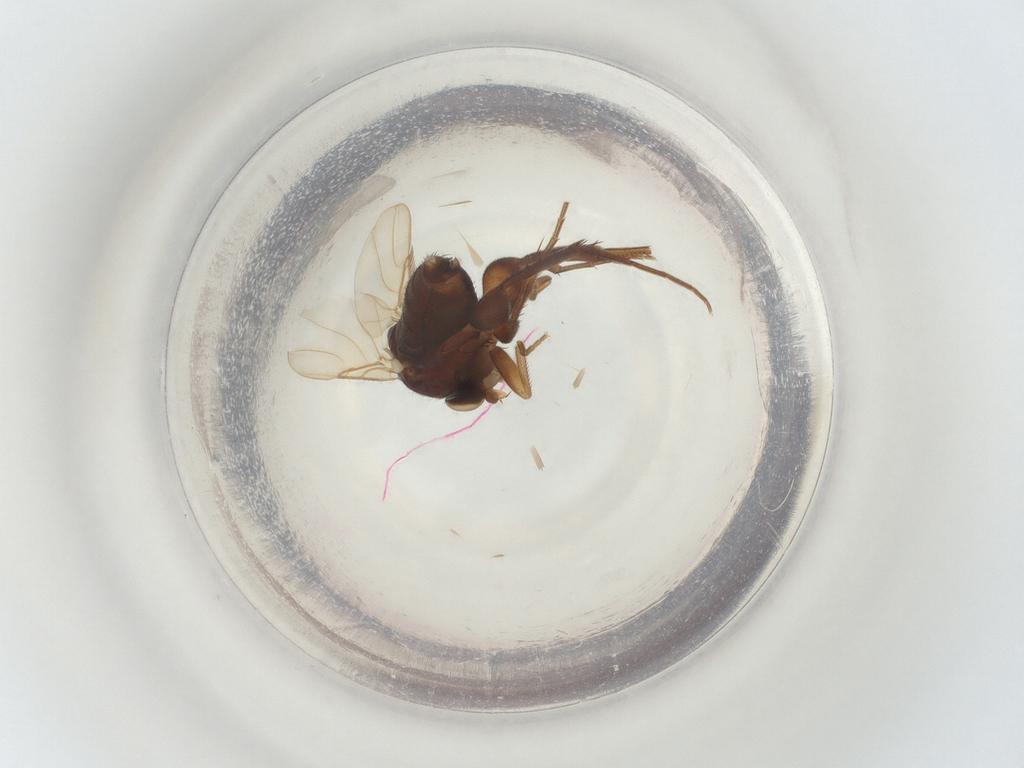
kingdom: Animalia
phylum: Arthropoda
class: Insecta
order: Diptera
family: Phoridae
